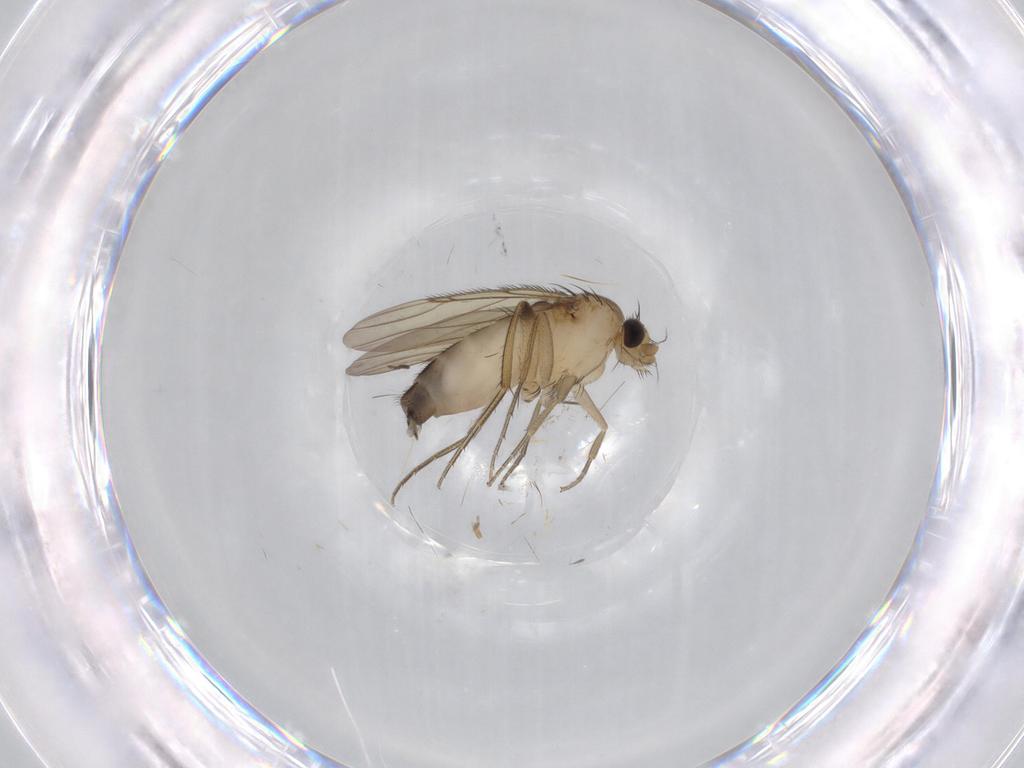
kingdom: Animalia
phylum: Arthropoda
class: Insecta
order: Diptera
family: Phoridae
